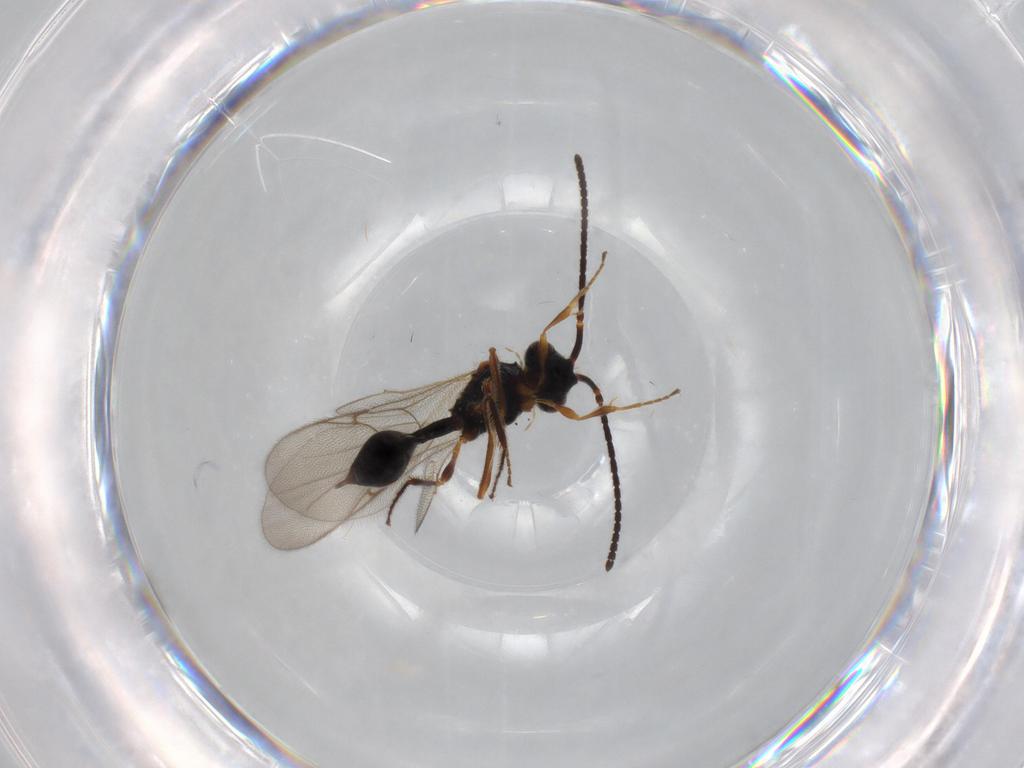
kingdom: Animalia
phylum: Arthropoda
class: Insecta
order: Hymenoptera
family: Diapriidae
